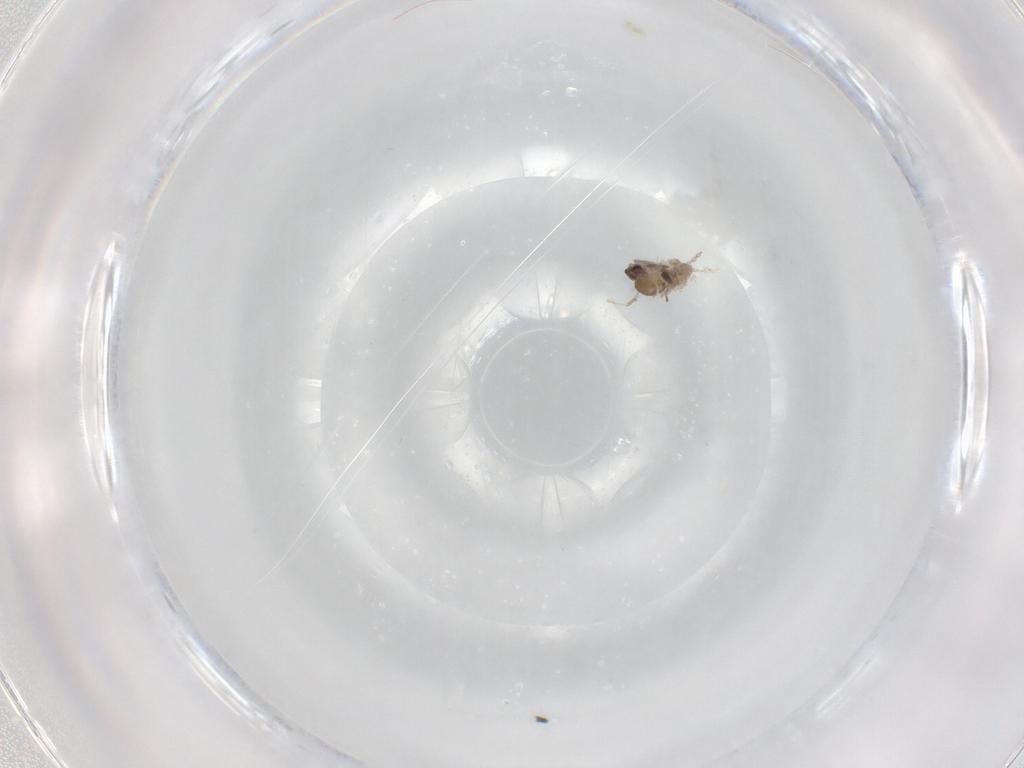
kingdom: Animalia
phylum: Arthropoda
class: Insecta
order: Diptera
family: Cecidomyiidae
